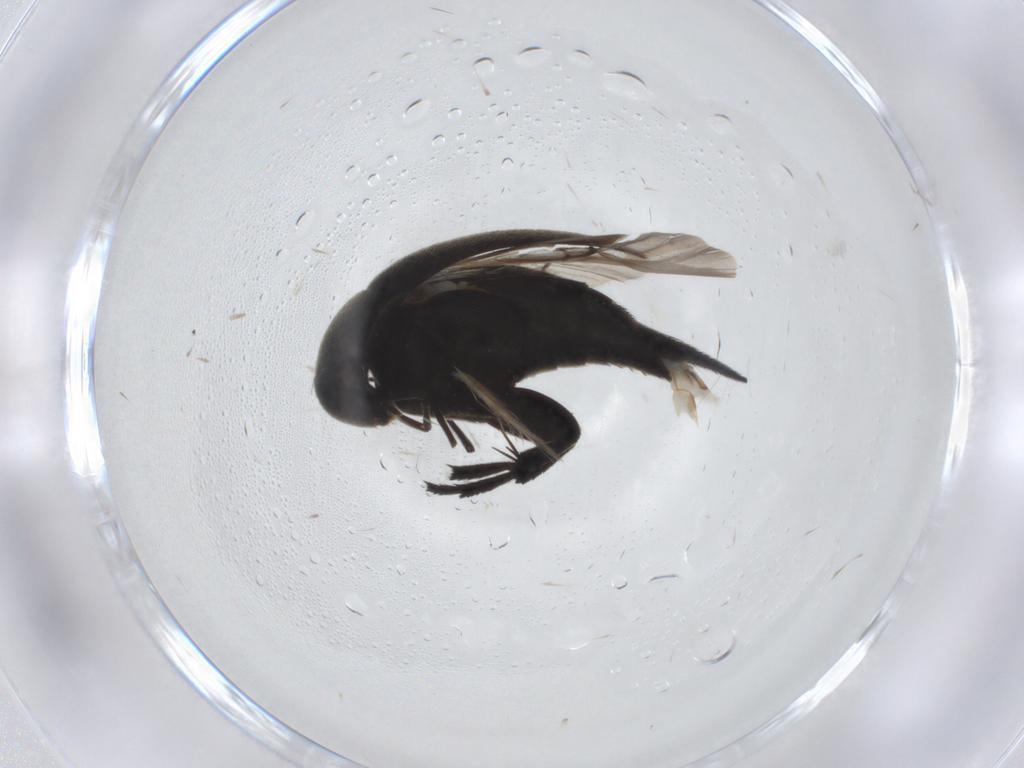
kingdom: Animalia
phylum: Arthropoda
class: Insecta
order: Coleoptera
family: Mordellidae
